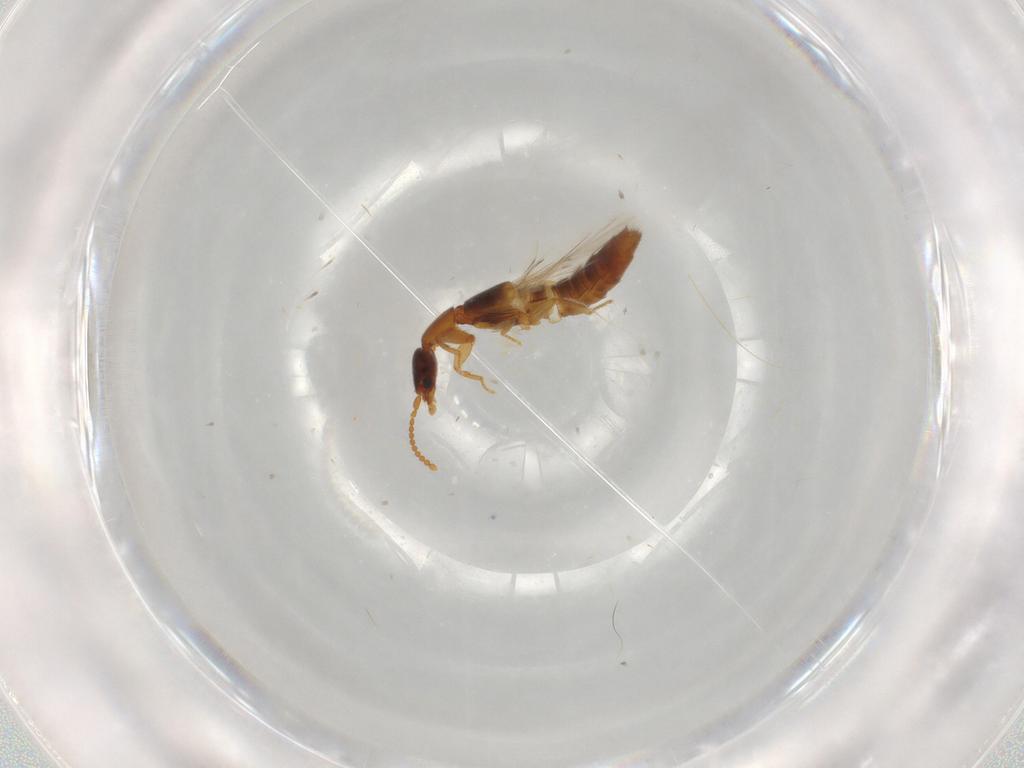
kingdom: Animalia
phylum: Arthropoda
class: Insecta
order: Coleoptera
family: Staphylinidae
